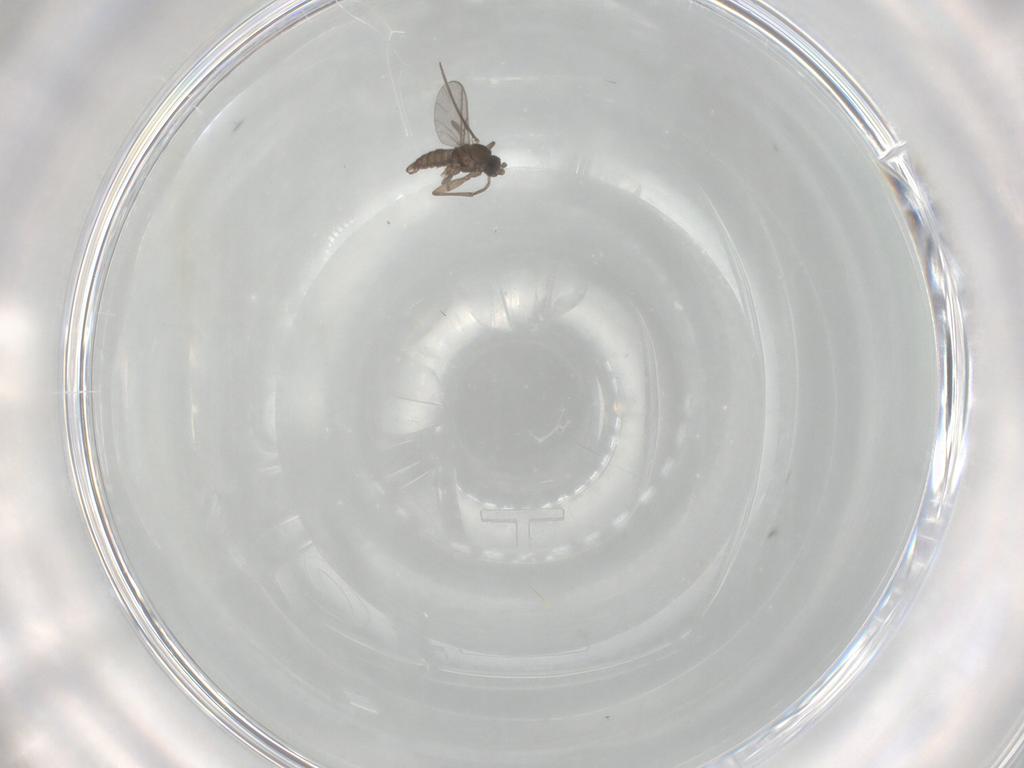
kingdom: Animalia
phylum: Arthropoda
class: Insecta
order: Diptera
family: Sciaridae
